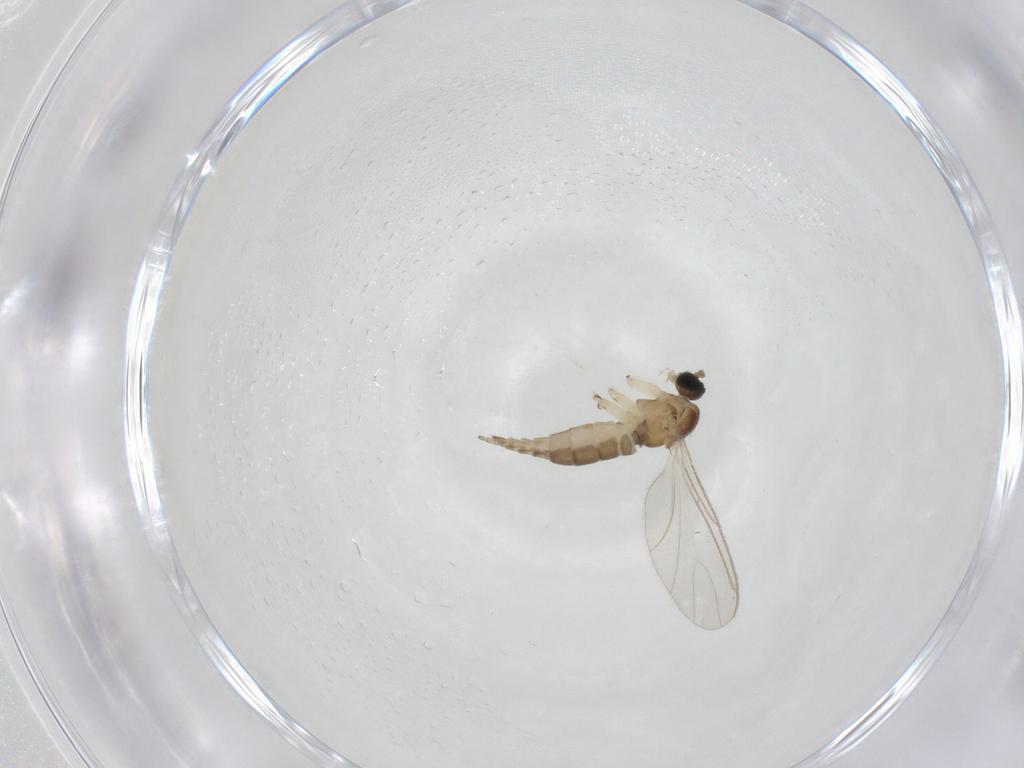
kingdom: Animalia
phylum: Arthropoda
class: Insecta
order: Diptera
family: Sciaridae
